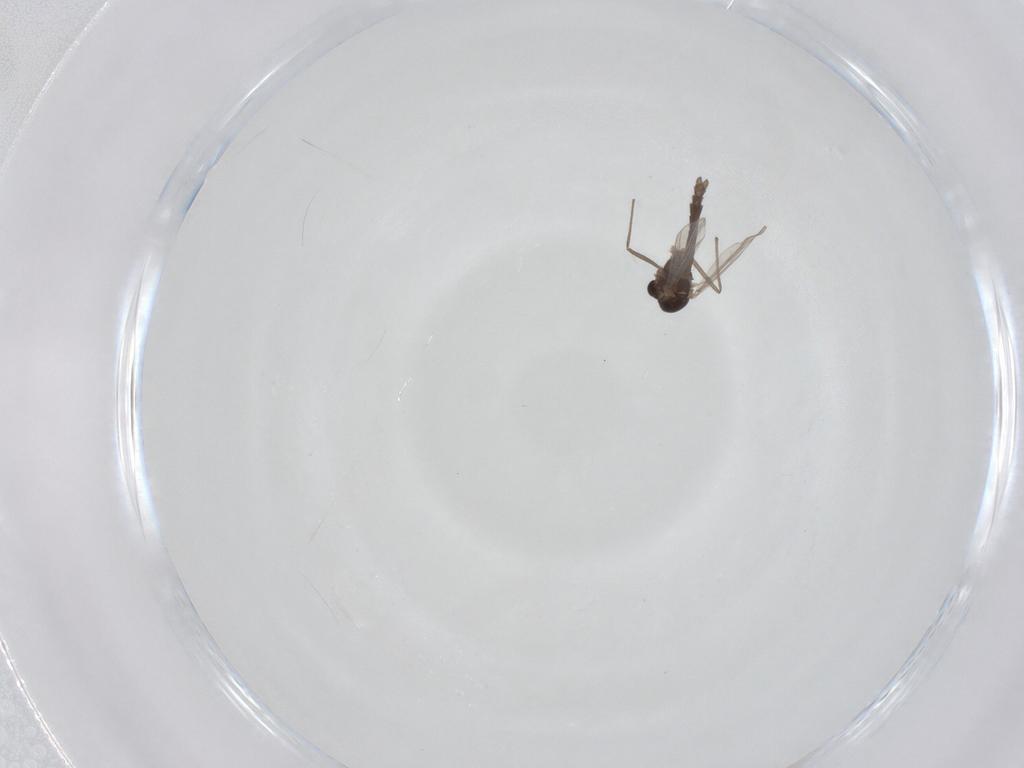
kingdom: Animalia
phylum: Arthropoda
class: Insecta
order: Diptera
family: Chironomidae
